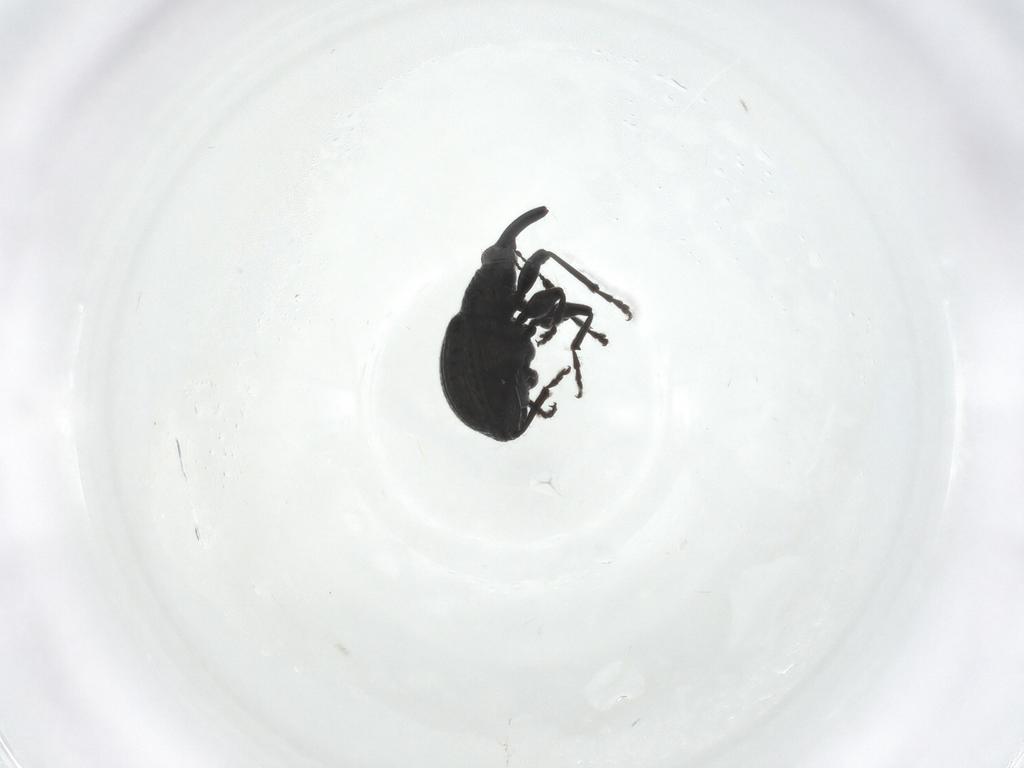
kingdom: Animalia
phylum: Arthropoda
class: Insecta
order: Coleoptera
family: Brentidae
